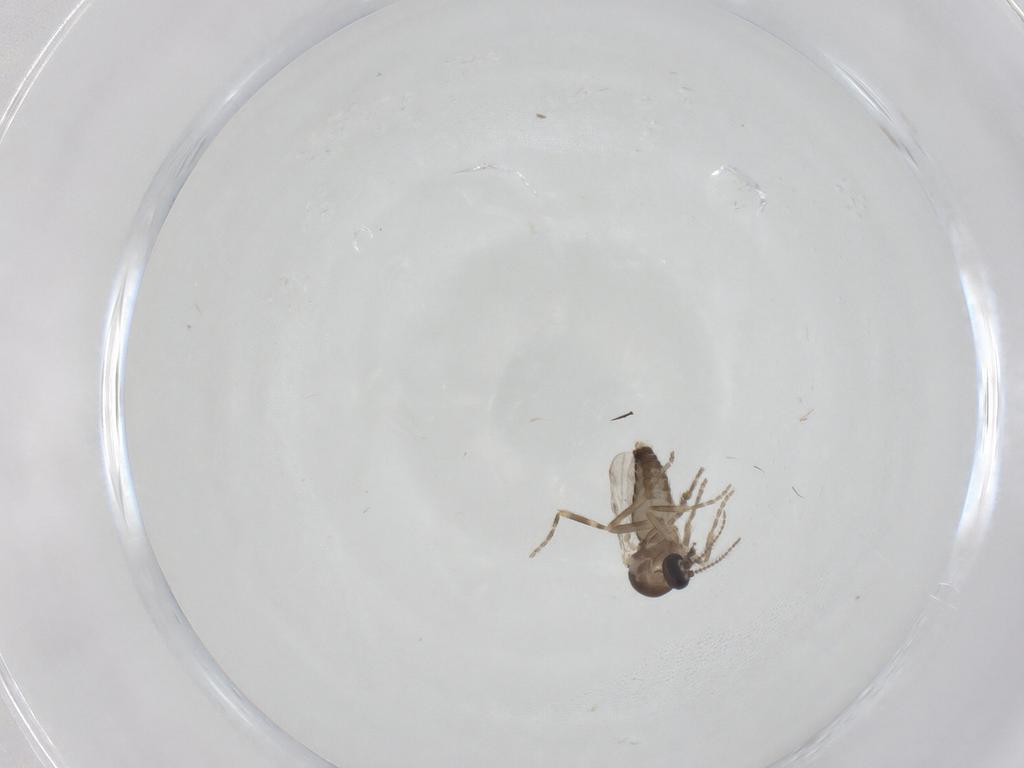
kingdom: Animalia
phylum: Arthropoda
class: Insecta
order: Diptera
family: Ceratopogonidae
